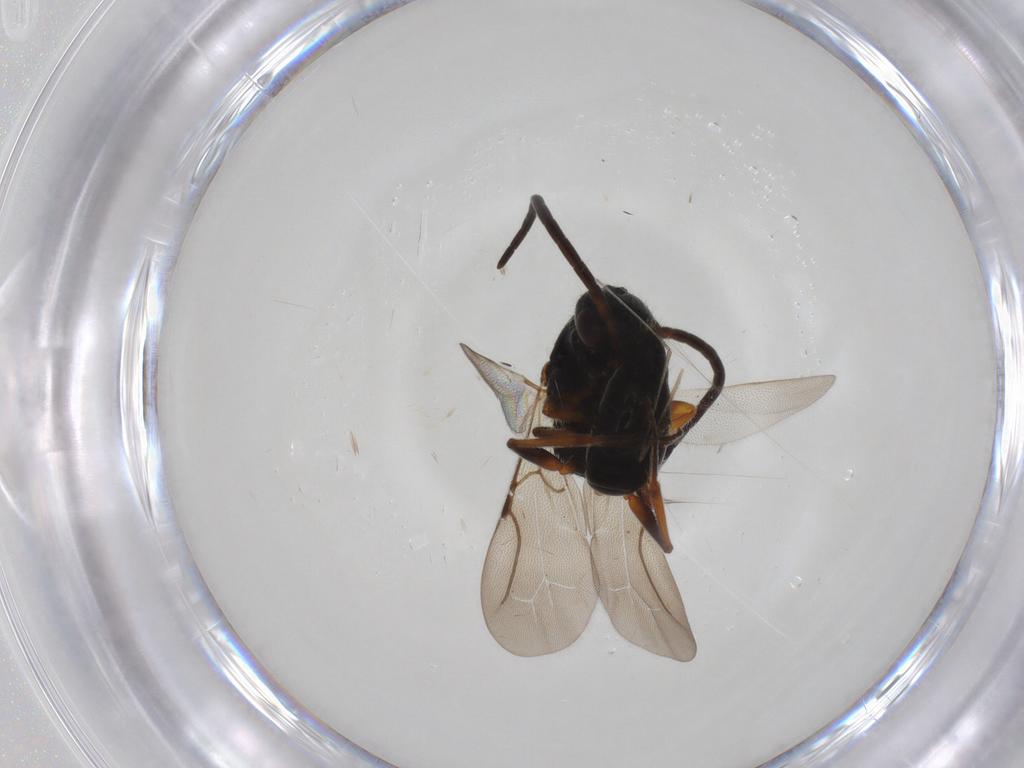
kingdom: Animalia
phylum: Arthropoda
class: Insecta
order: Hymenoptera
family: Bethylidae
